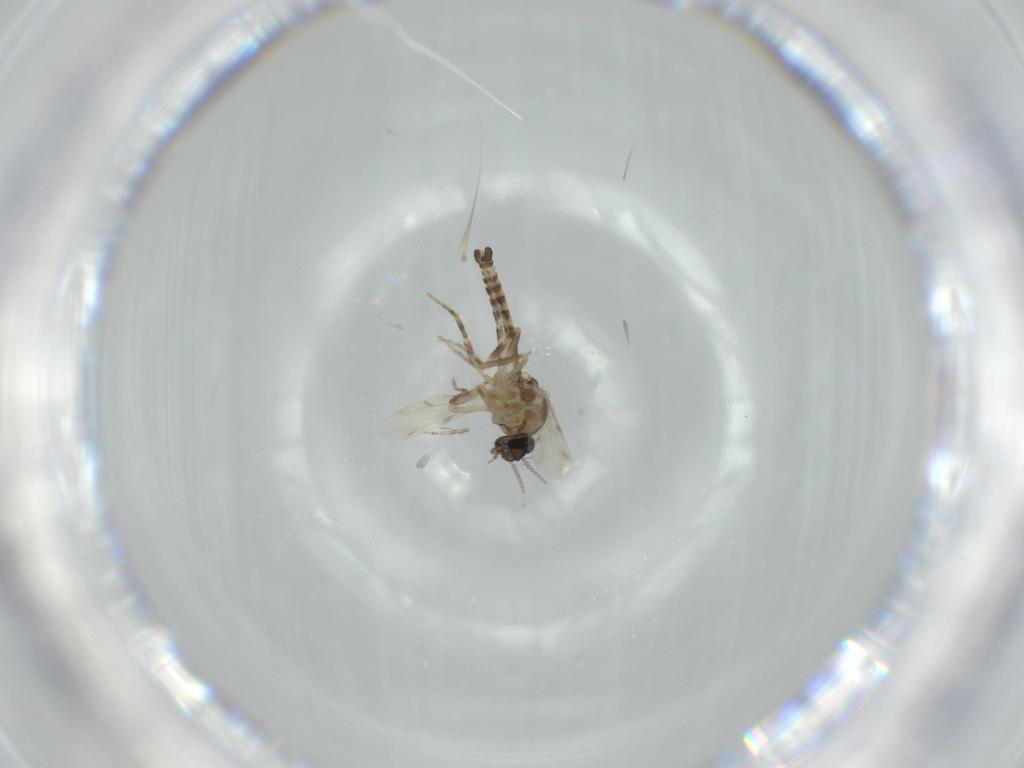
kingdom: Animalia
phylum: Arthropoda
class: Insecta
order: Diptera
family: Ceratopogonidae
